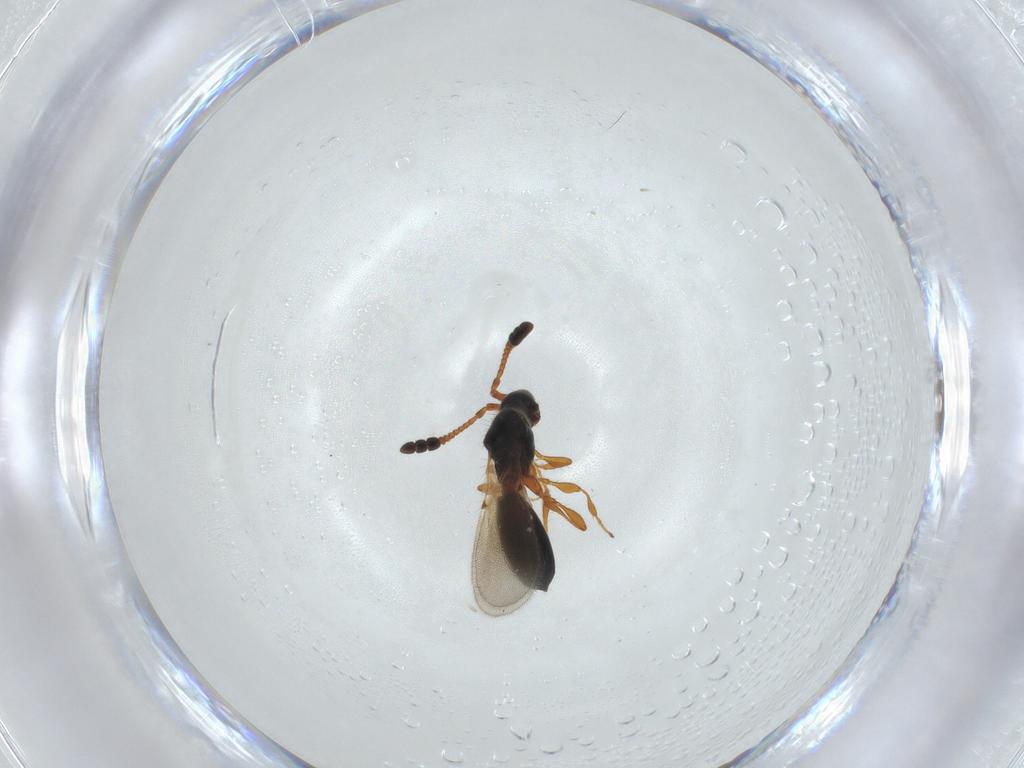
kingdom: Animalia
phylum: Arthropoda
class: Insecta
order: Hymenoptera
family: Diapriidae
